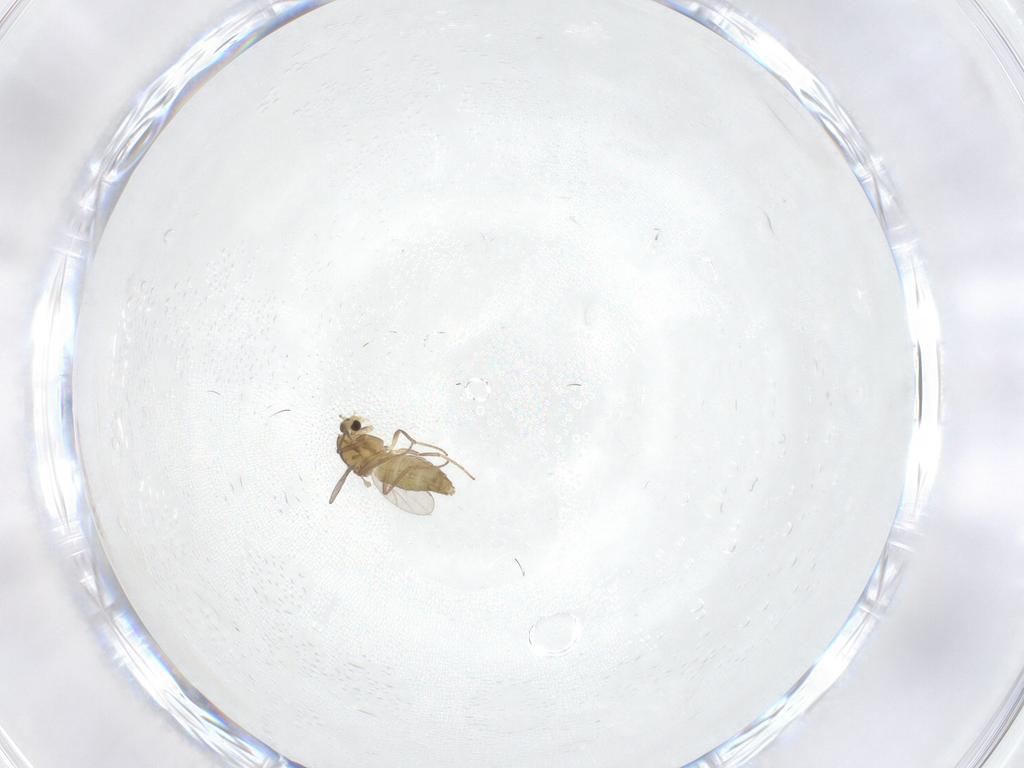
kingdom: Animalia
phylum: Arthropoda
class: Insecta
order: Diptera
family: Chironomidae
